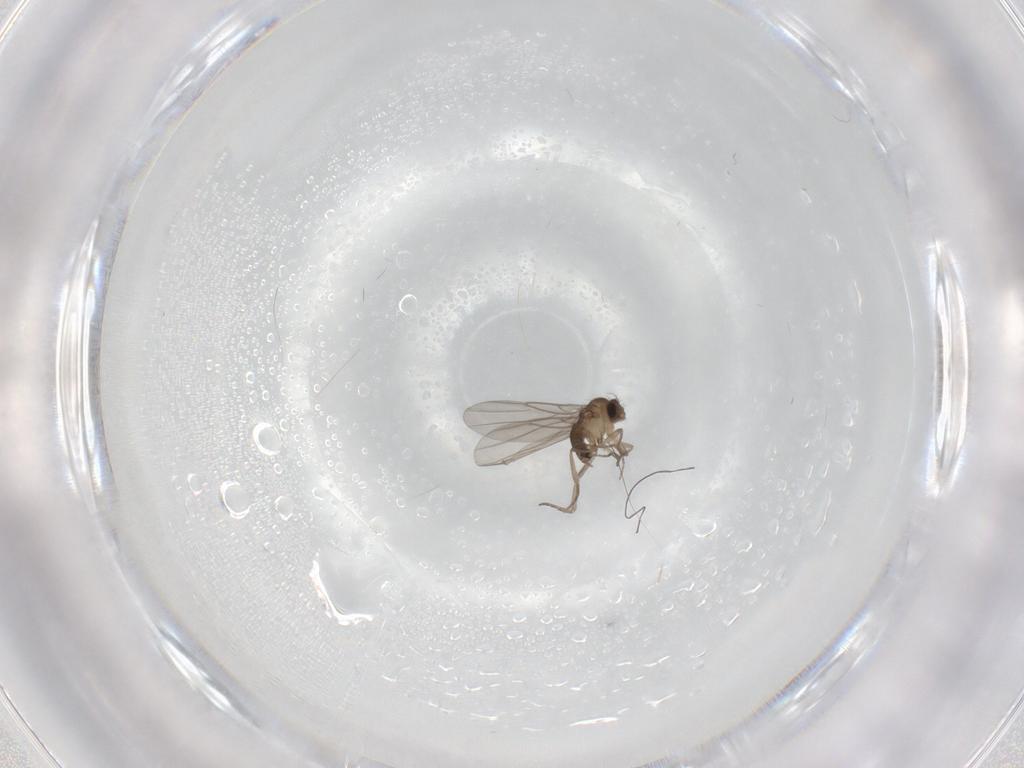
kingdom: Animalia
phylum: Arthropoda
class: Insecta
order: Diptera
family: Phoridae
